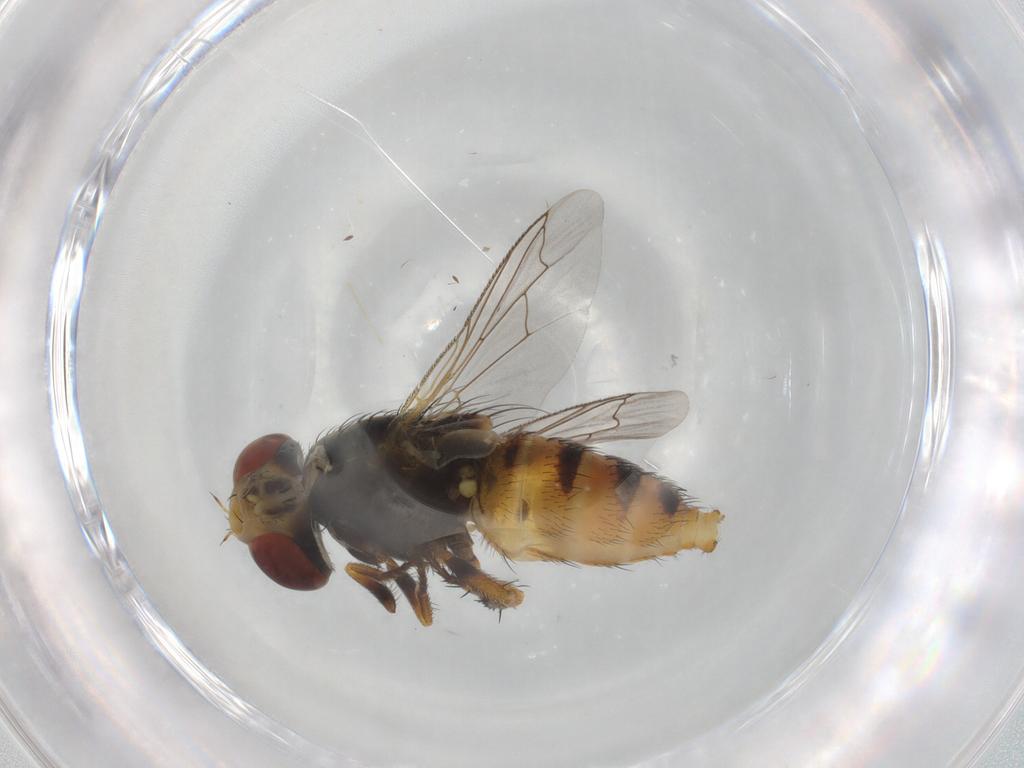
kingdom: Animalia
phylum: Arthropoda
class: Insecta
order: Diptera
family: Sarcophagidae
